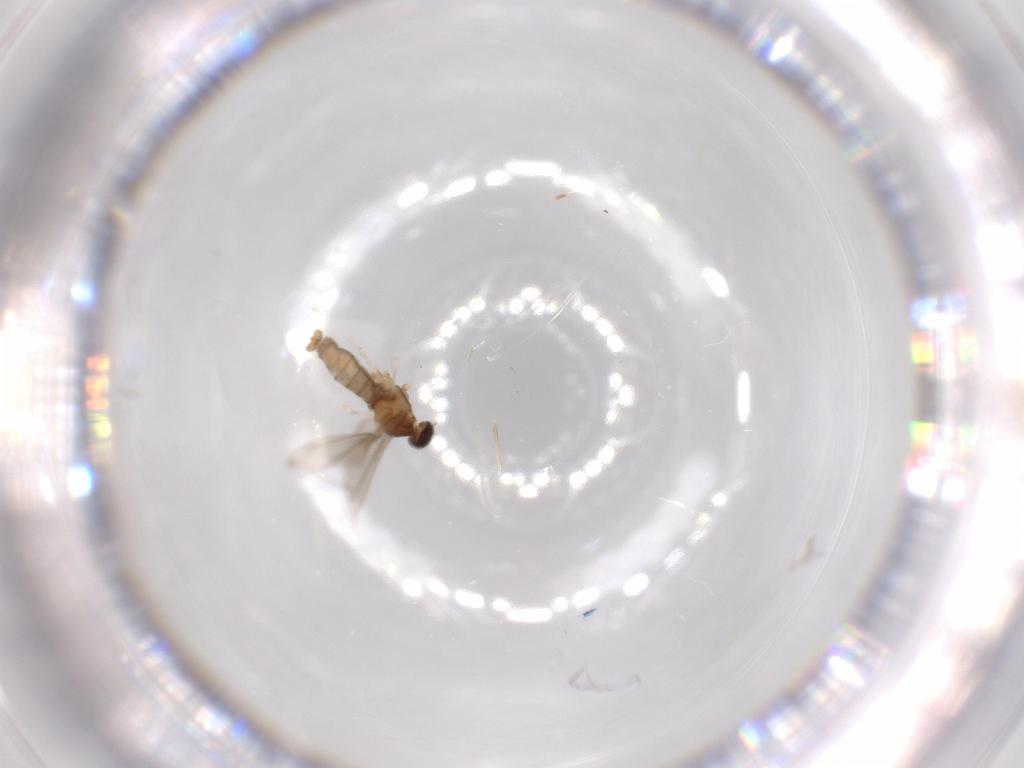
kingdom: Animalia
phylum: Arthropoda
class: Insecta
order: Diptera
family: Cecidomyiidae
